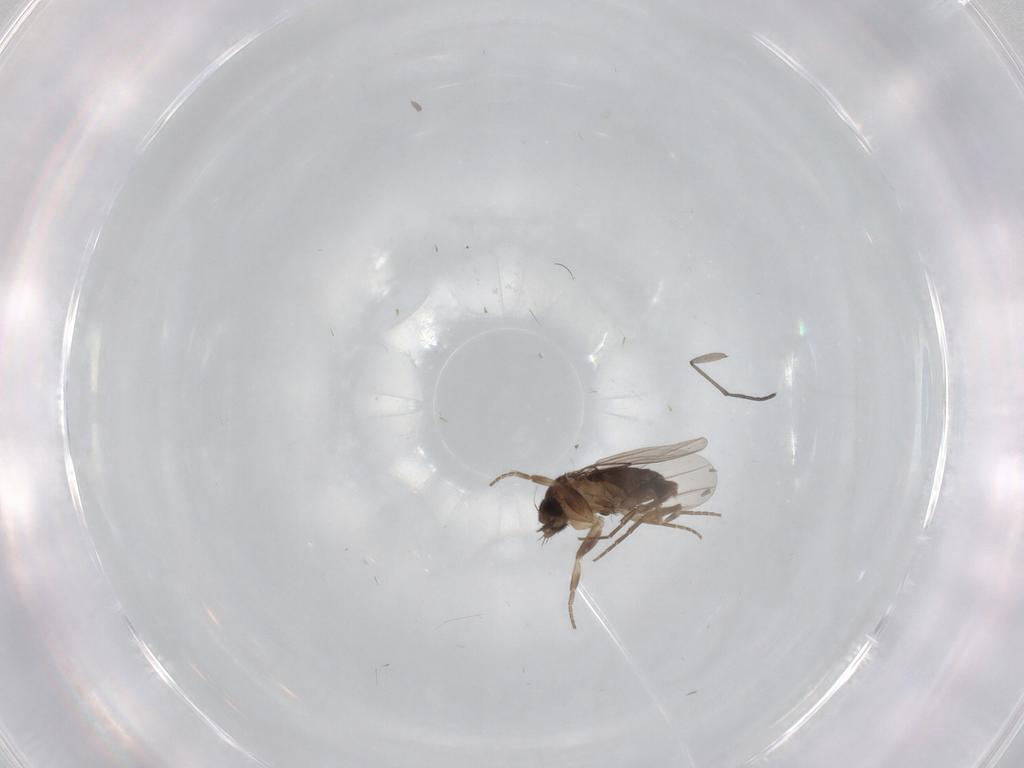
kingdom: Animalia
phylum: Arthropoda
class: Insecta
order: Diptera
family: Phoridae
